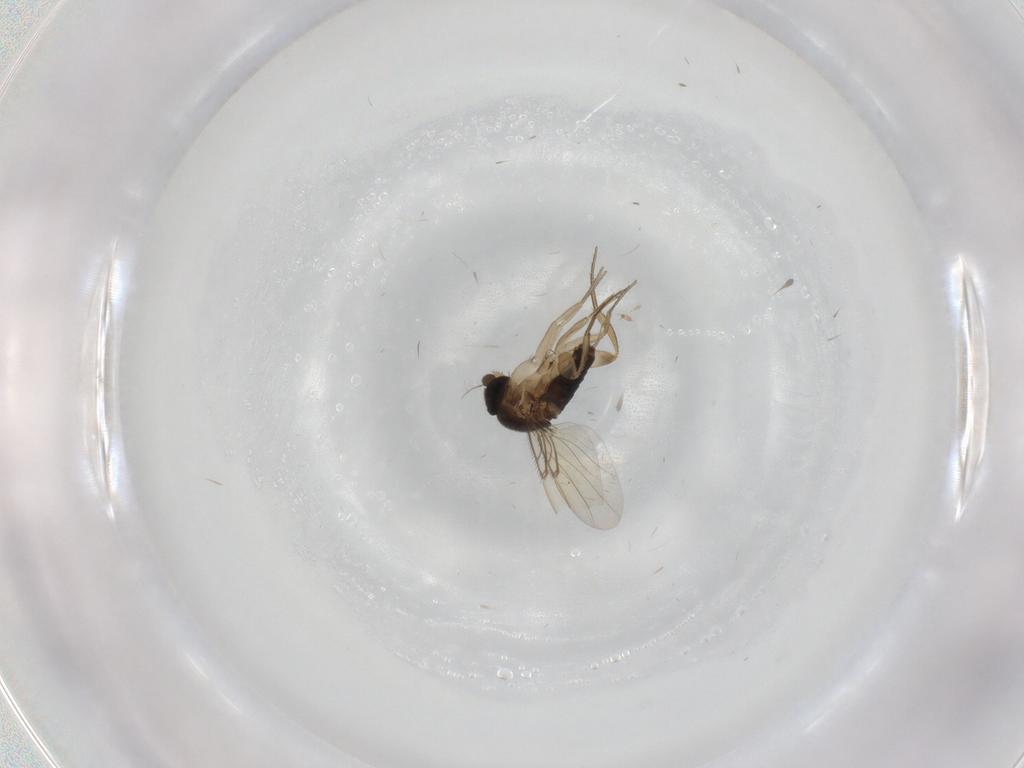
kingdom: Animalia
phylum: Arthropoda
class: Insecta
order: Diptera
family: Phoridae
